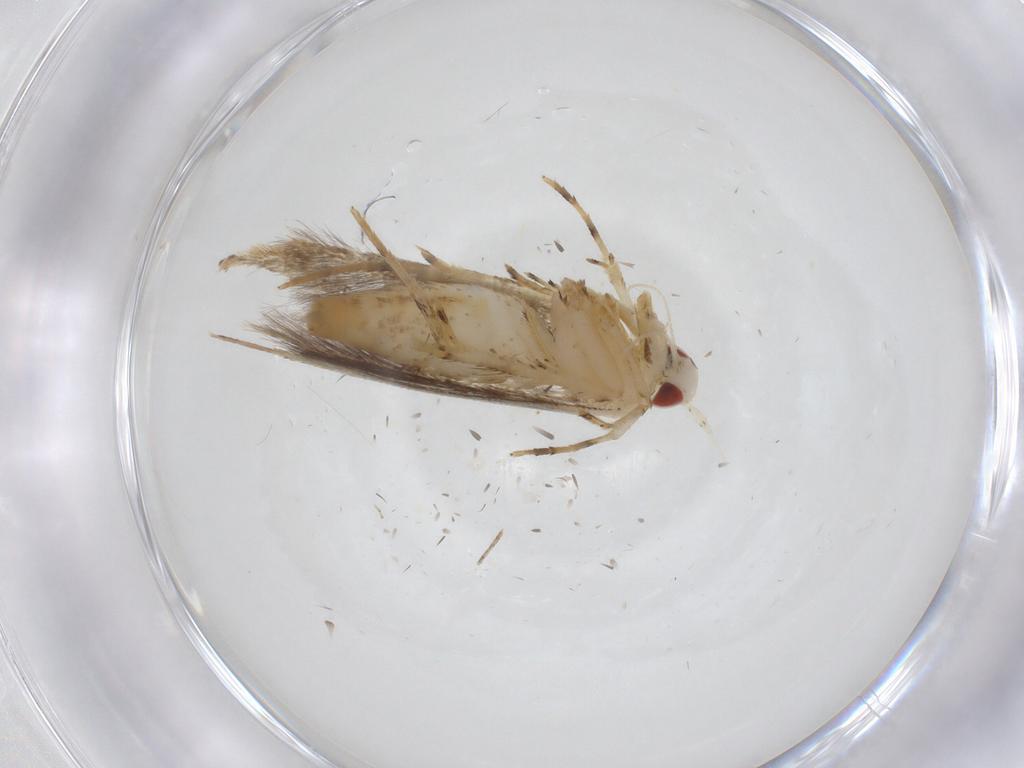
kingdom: Animalia
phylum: Arthropoda
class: Insecta
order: Lepidoptera
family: Cosmopterigidae
